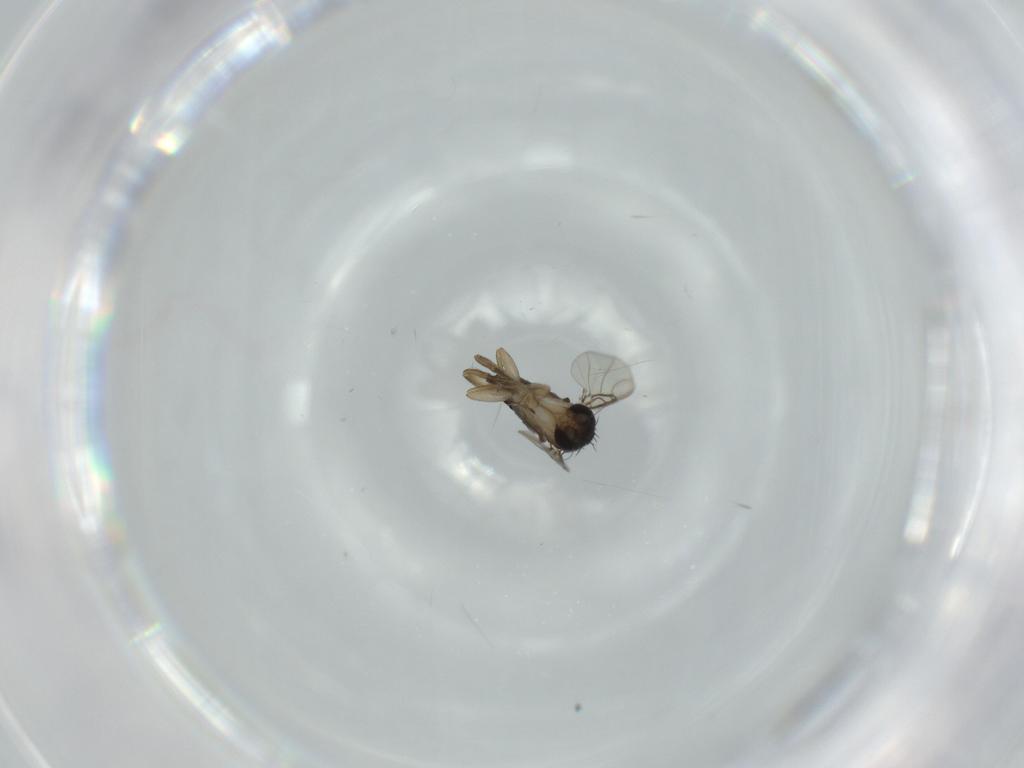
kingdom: Animalia
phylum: Arthropoda
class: Insecta
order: Diptera
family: Phoridae
